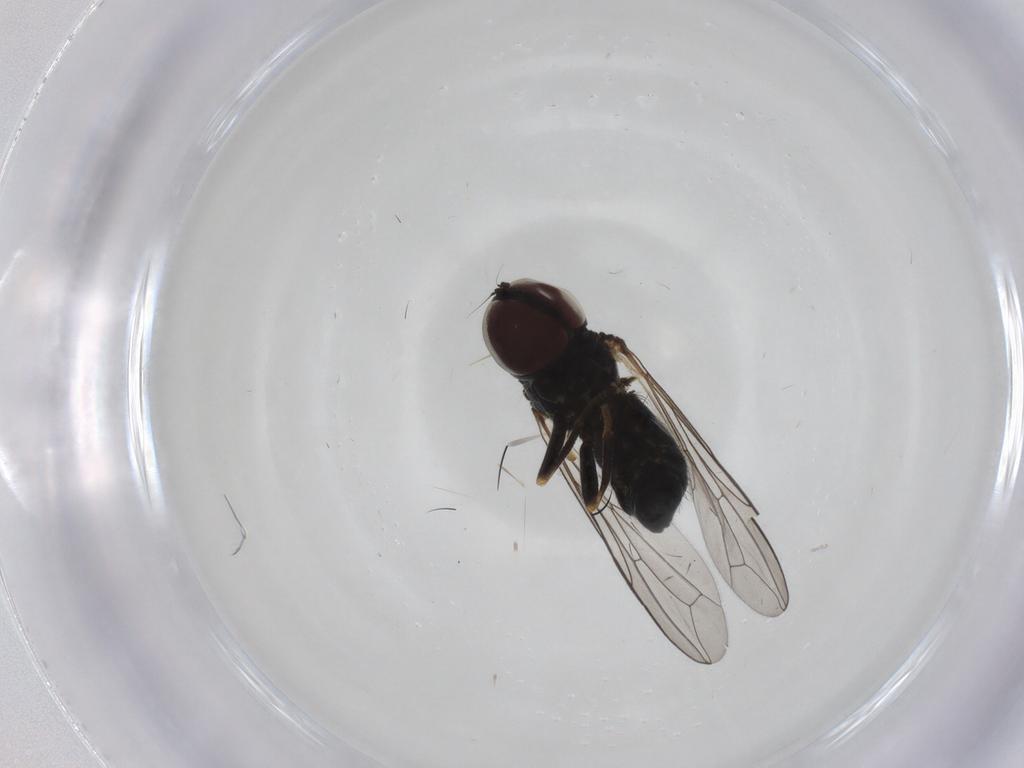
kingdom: Animalia
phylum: Arthropoda
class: Insecta
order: Diptera
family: Pipunculidae
